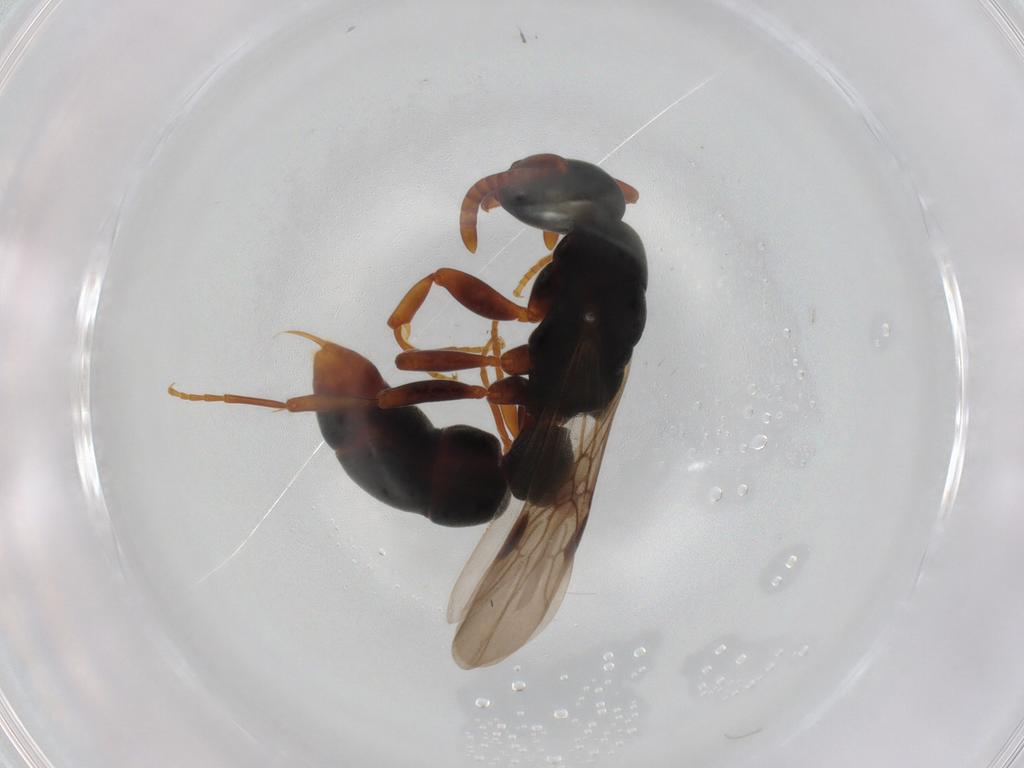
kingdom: Animalia
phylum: Arthropoda
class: Insecta
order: Hymenoptera
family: Formicidae
